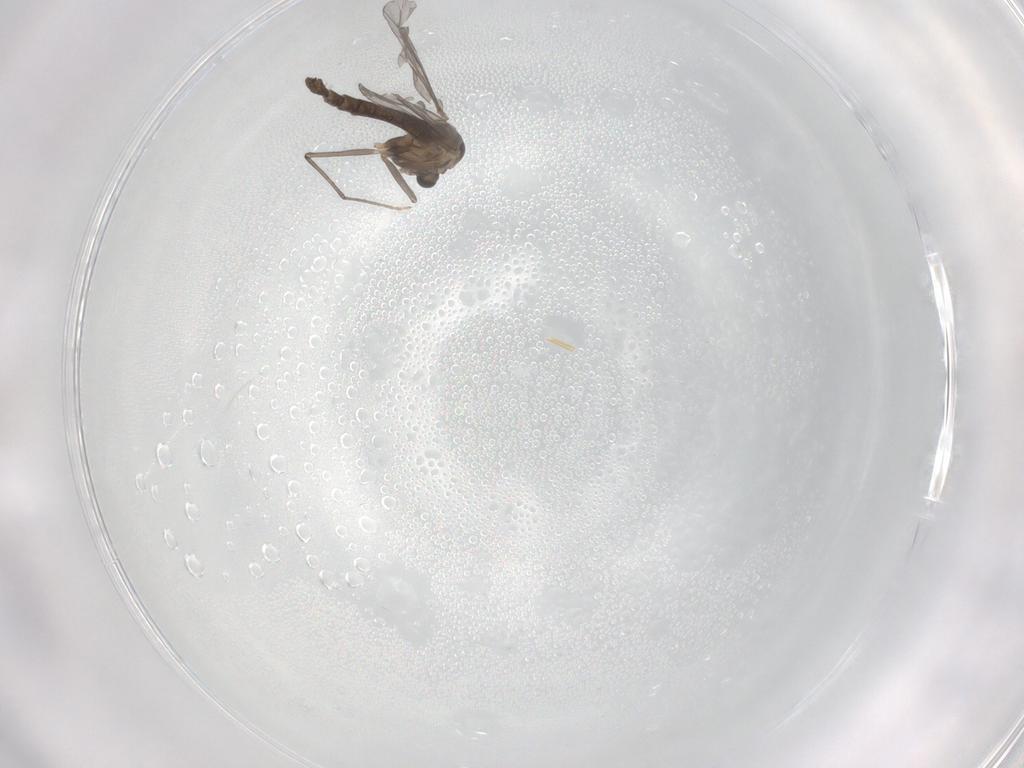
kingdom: Animalia
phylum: Arthropoda
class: Insecta
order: Diptera
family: Chironomidae
